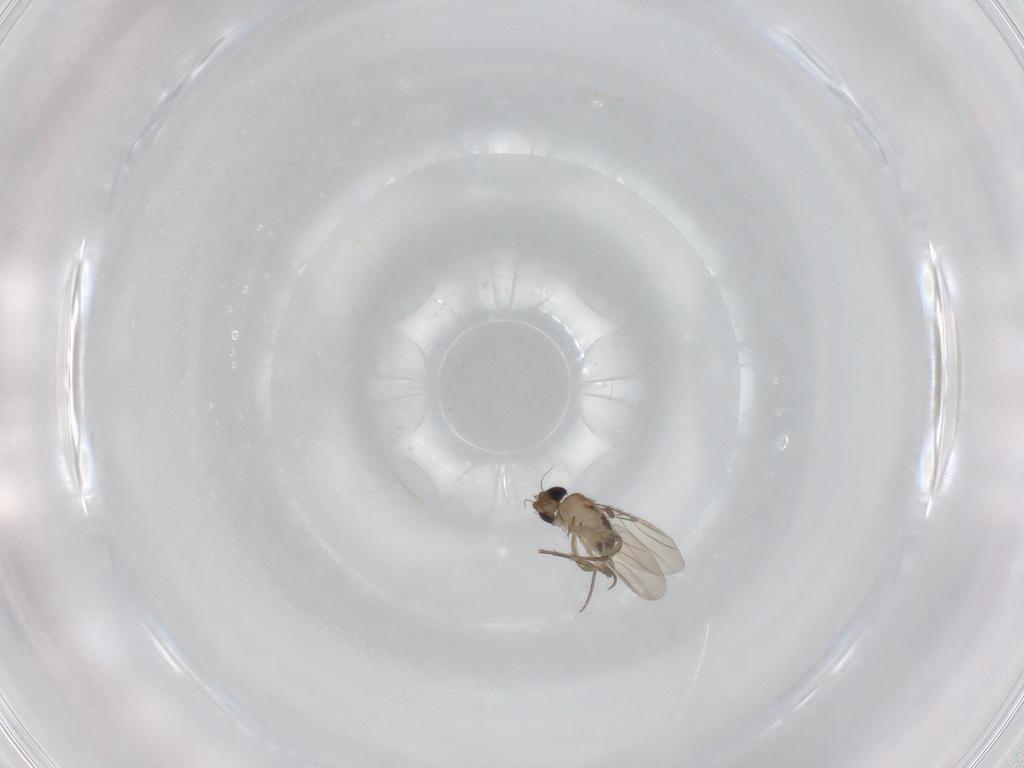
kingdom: Animalia
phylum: Arthropoda
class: Insecta
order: Diptera
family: Phoridae
